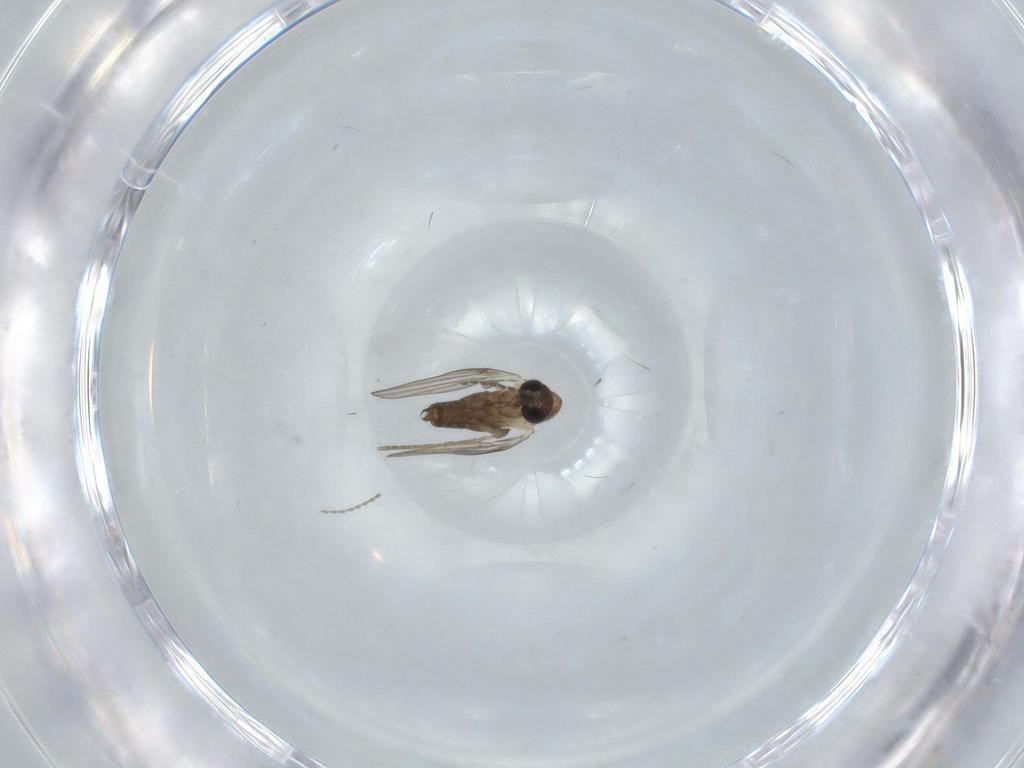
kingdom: Animalia
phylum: Arthropoda
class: Insecta
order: Diptera
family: Psychodidae
